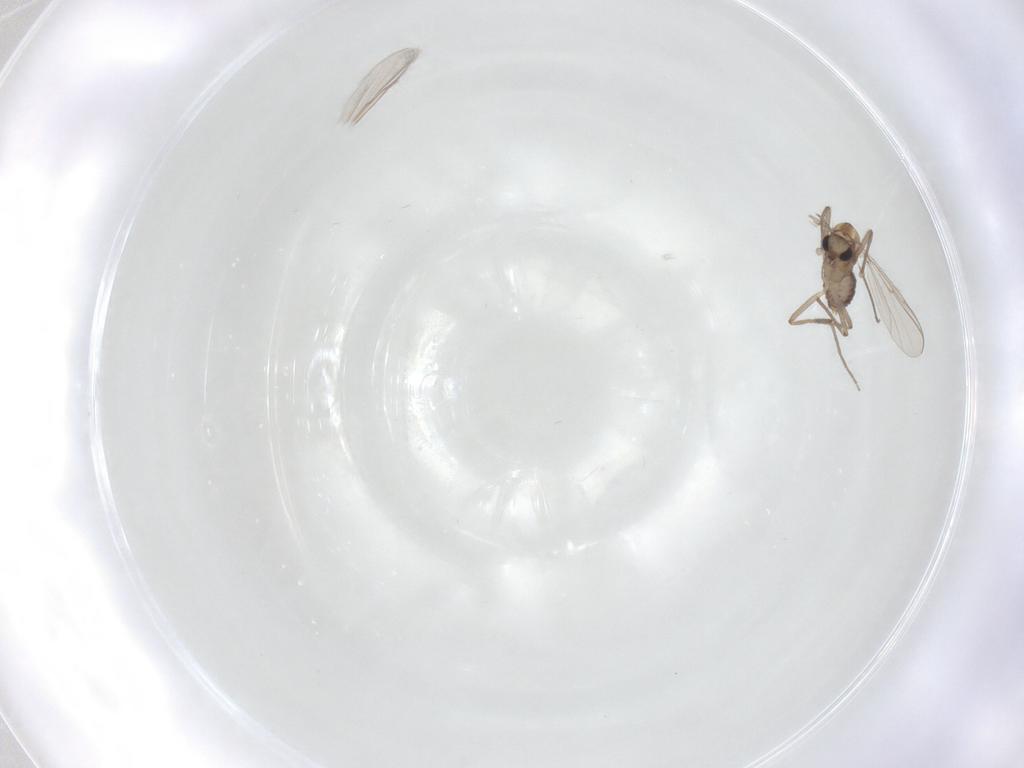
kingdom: Animalia
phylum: Arthropoda
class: Insecta
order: Diptera
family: Chironomidae
